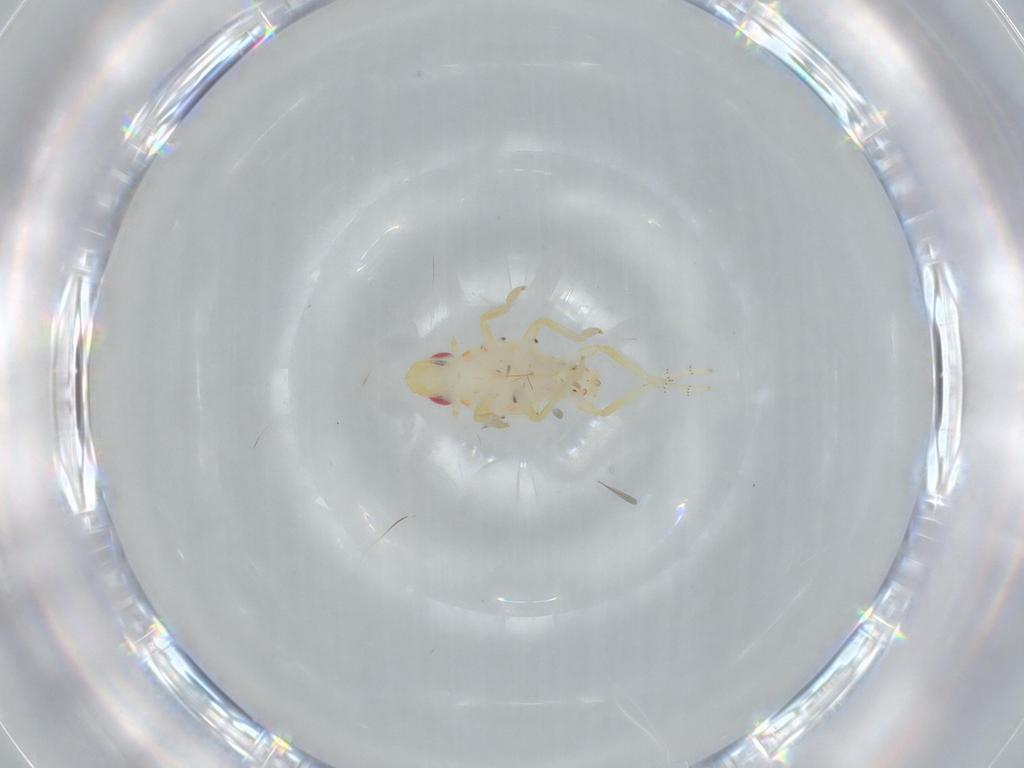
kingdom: Animalia
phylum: Arthropoda
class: Insecta
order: Hemiptera
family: Tropiduchidae
